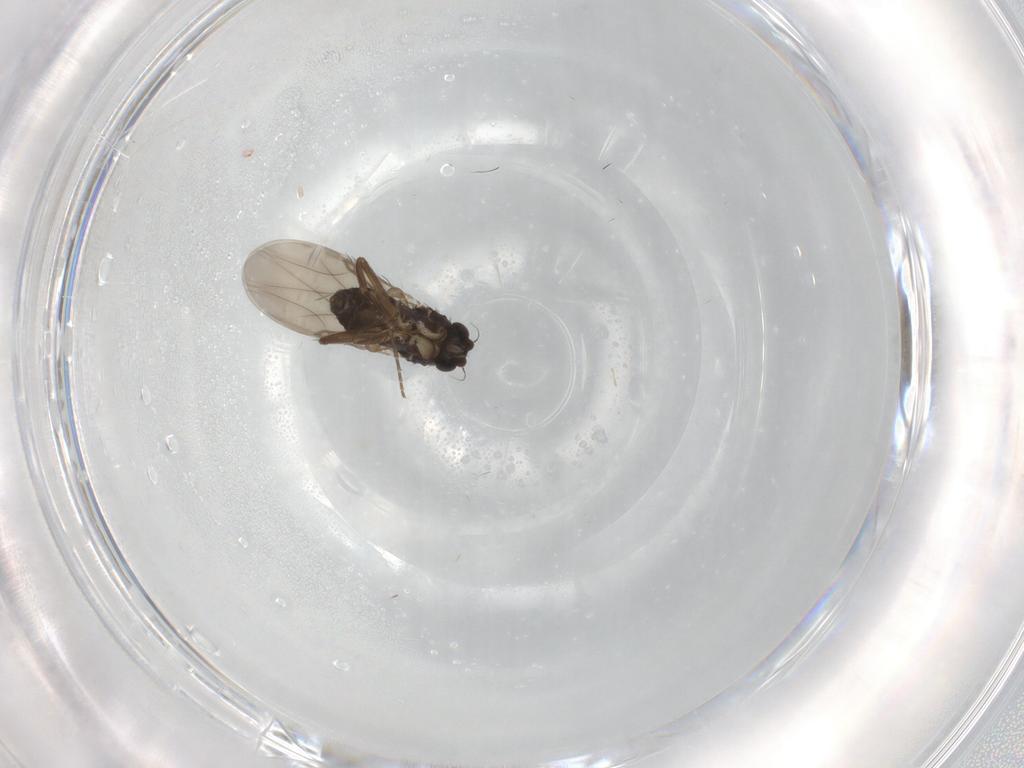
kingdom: Animalia
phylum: Arthropoda
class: Insecta
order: Diptera
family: Phoridae
